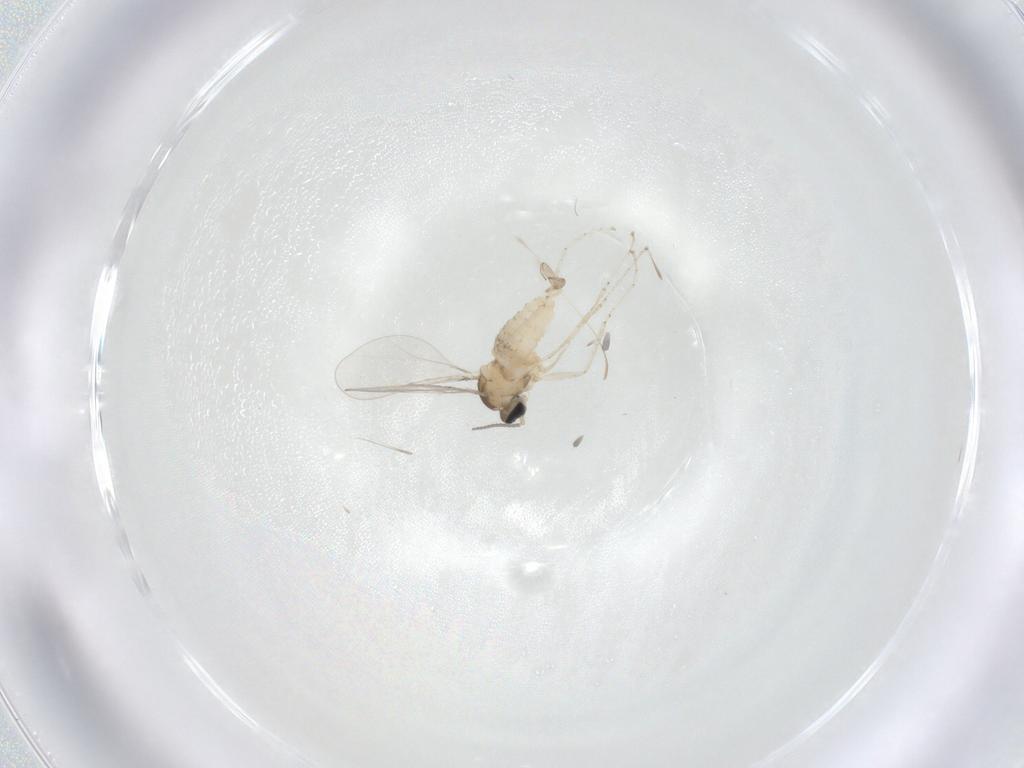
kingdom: Animalia
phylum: Arthropoda
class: Insecta
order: Diptera
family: Cecidomyiidae
